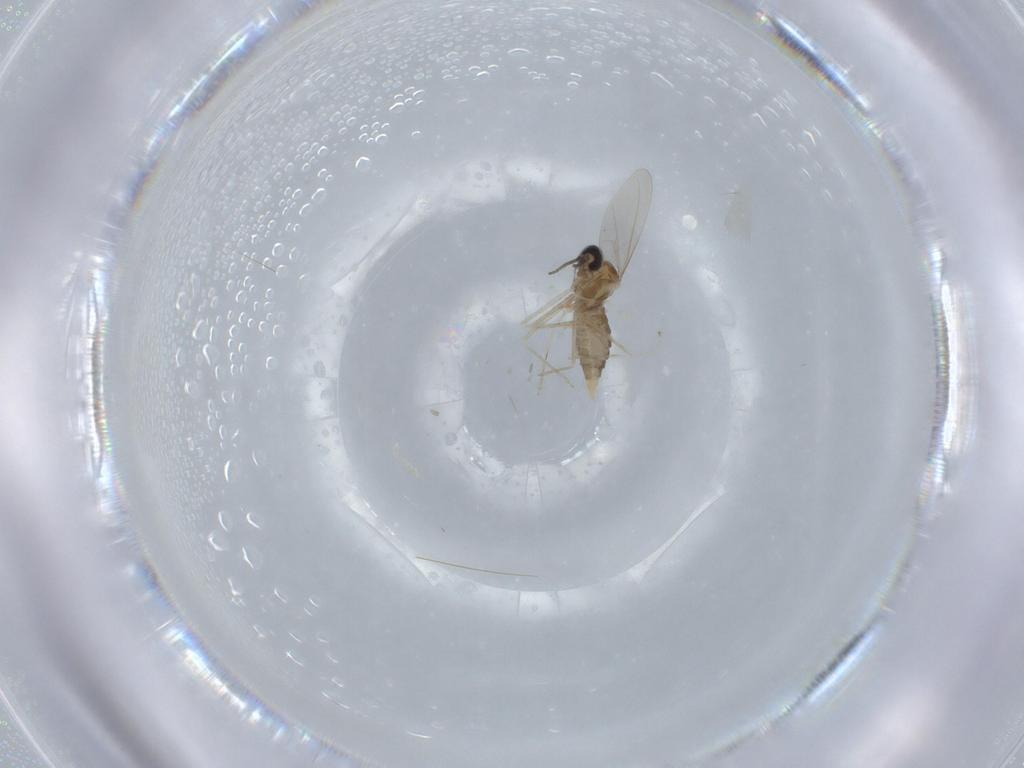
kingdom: Animalia
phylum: Arthropoda
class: Insecta
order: Diptera
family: Cecidomyiidae
